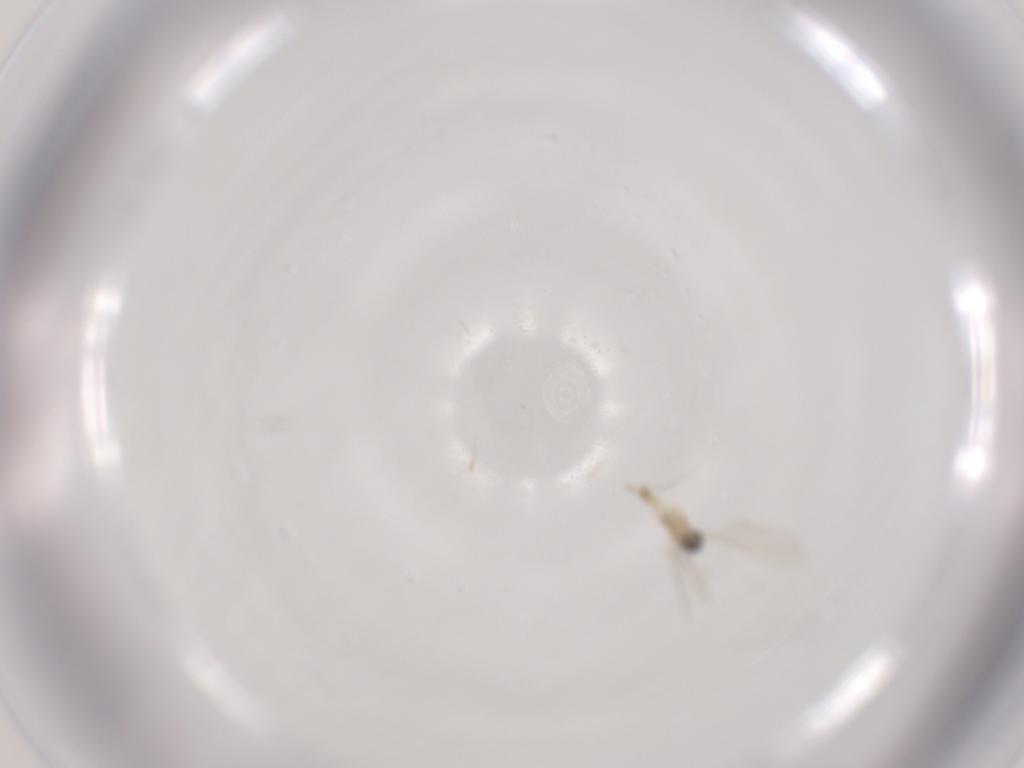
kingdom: Animalia
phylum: Arthropoda
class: Insecta
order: Diptera
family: Cecidomyiidae
